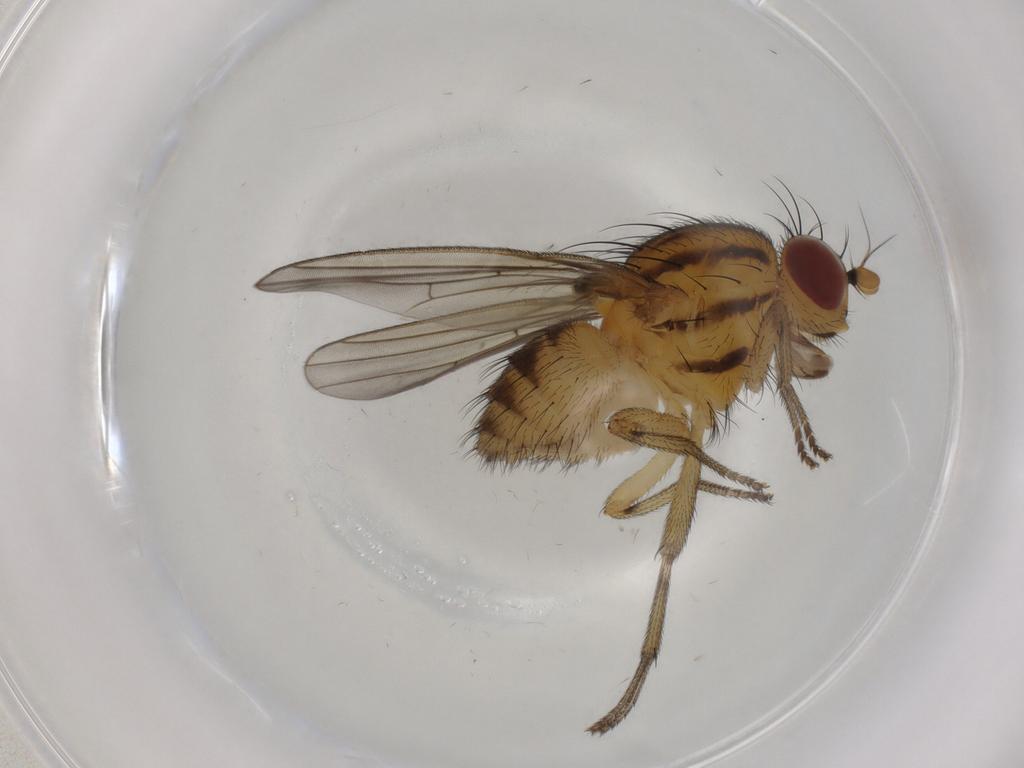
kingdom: Animalia
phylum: Arthropoda
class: Insecta
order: Diptera
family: Ceratopogonidae
